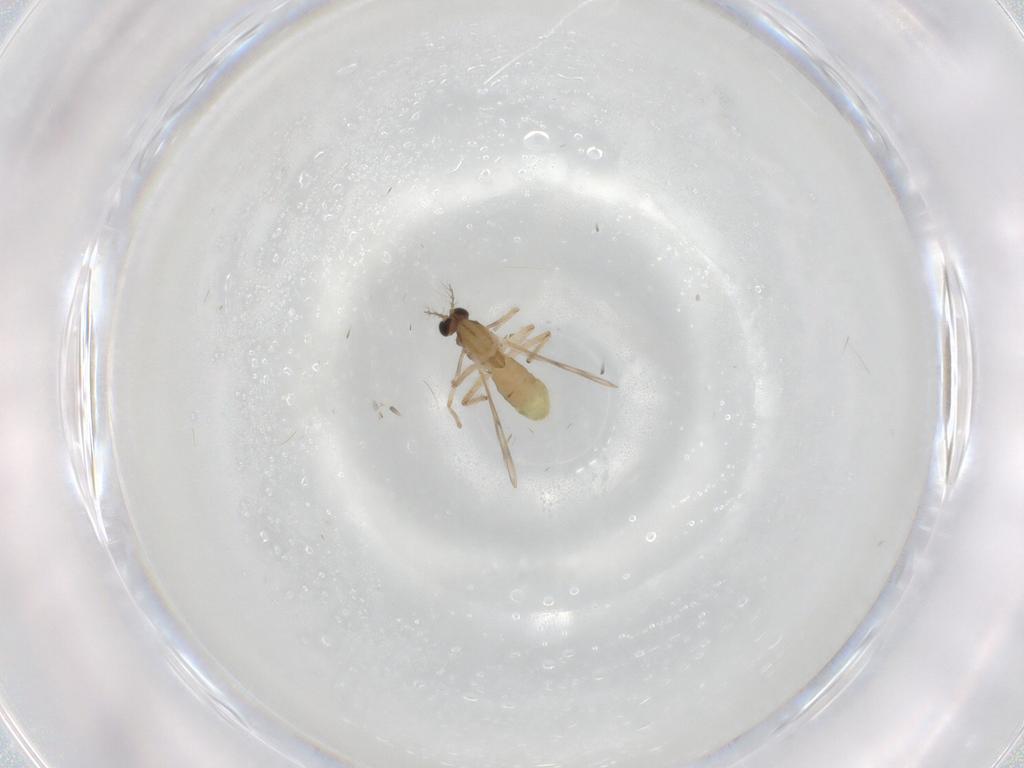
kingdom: Animalia
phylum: Arthropoda
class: Insecta
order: Diptera
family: Chironomidae
